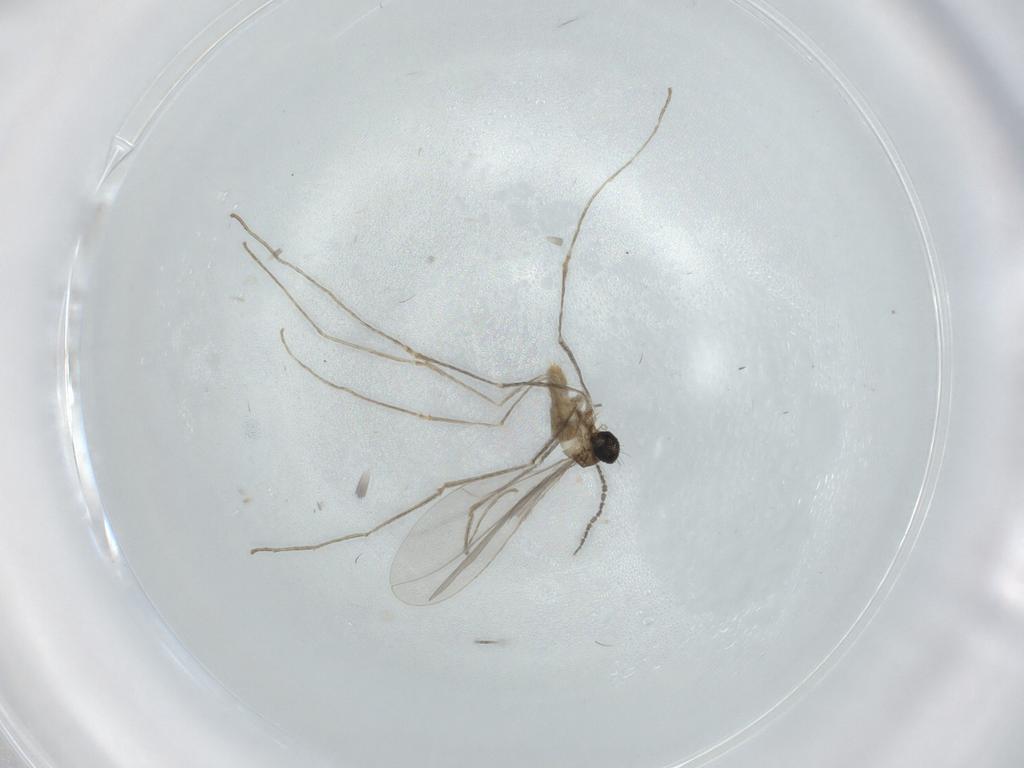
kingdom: Animalia
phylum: Arthropoda
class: Insecta
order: Diptera
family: Cecidomyiidae
